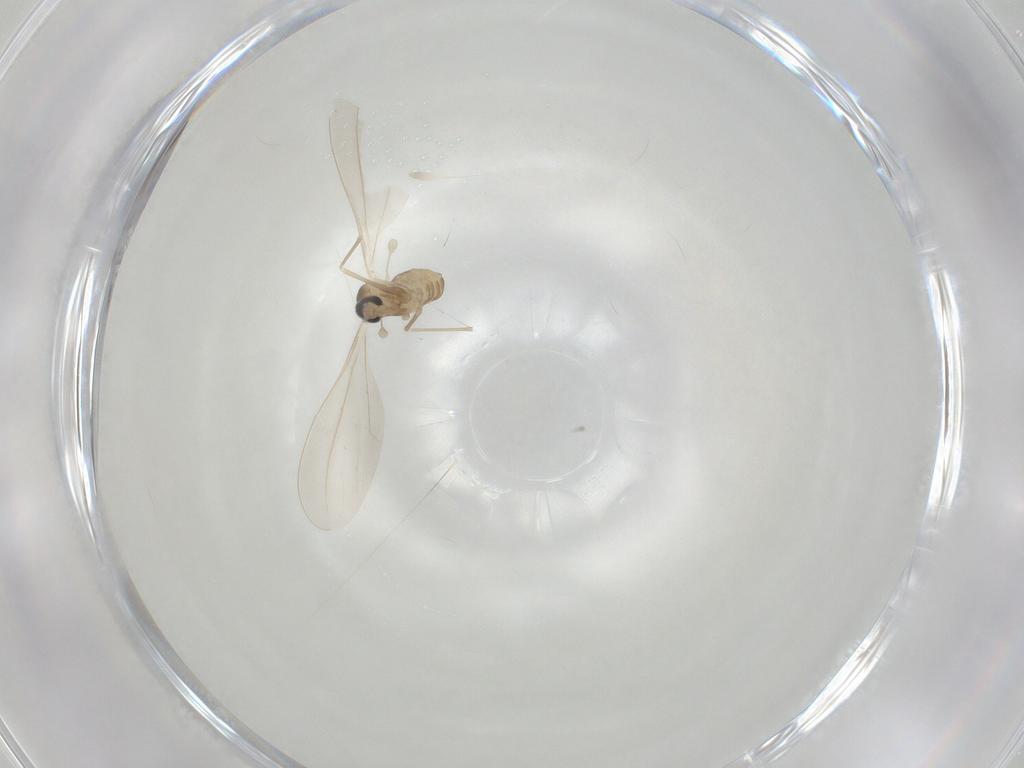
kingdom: Animalia
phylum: Arthropoda
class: Insecta
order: Diptera
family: Cecidomyiidae
